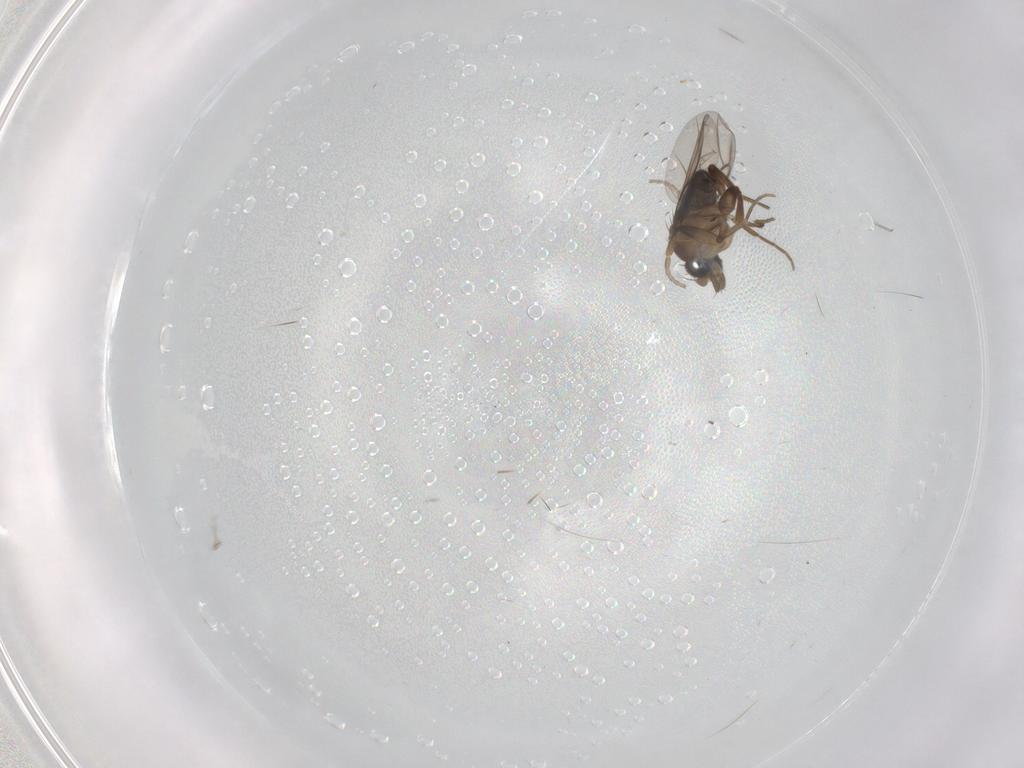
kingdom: Animalia
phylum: Arthropoda
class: Insecta
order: Diptera
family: Phoridae
